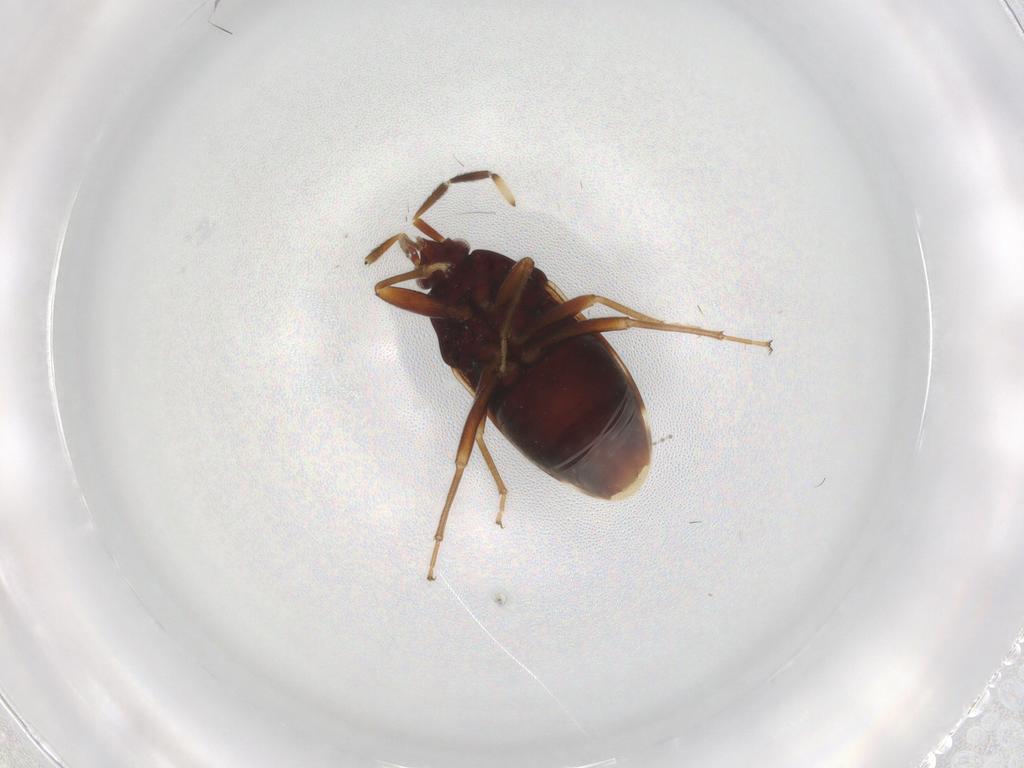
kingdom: Animalia
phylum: Arthropoda
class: Insecta
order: Hemiptera
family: Rhyparochromidae
